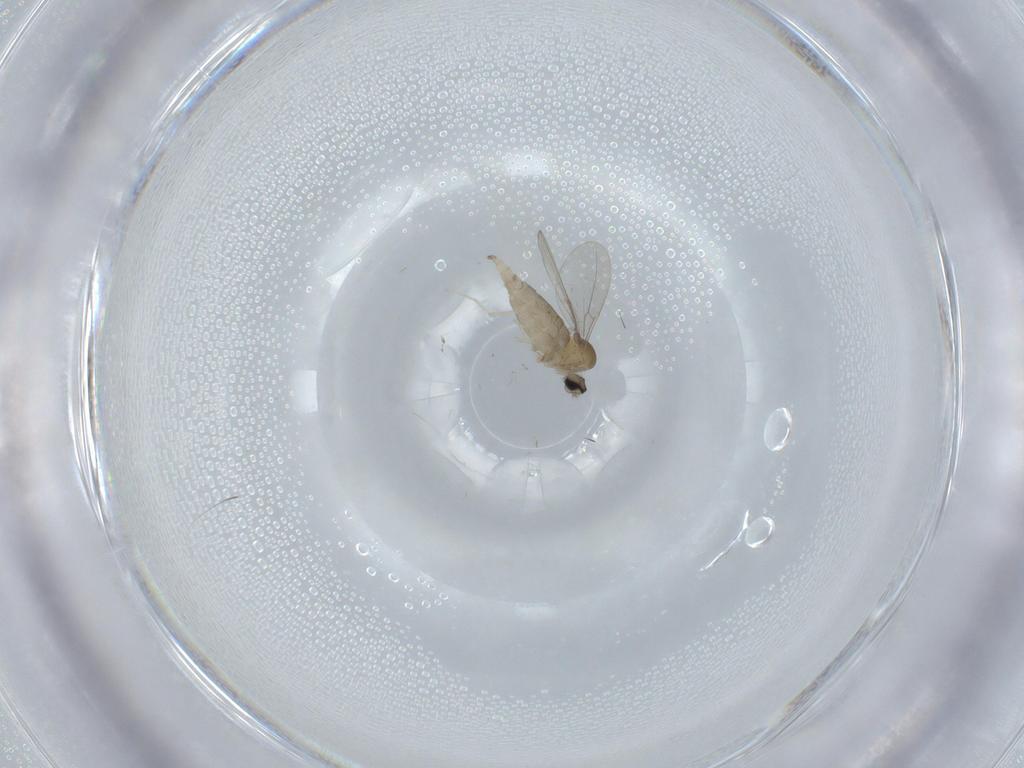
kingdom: Animalia
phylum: Arthropoda
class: Insecta
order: Diptera
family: Cecidomyiidae
